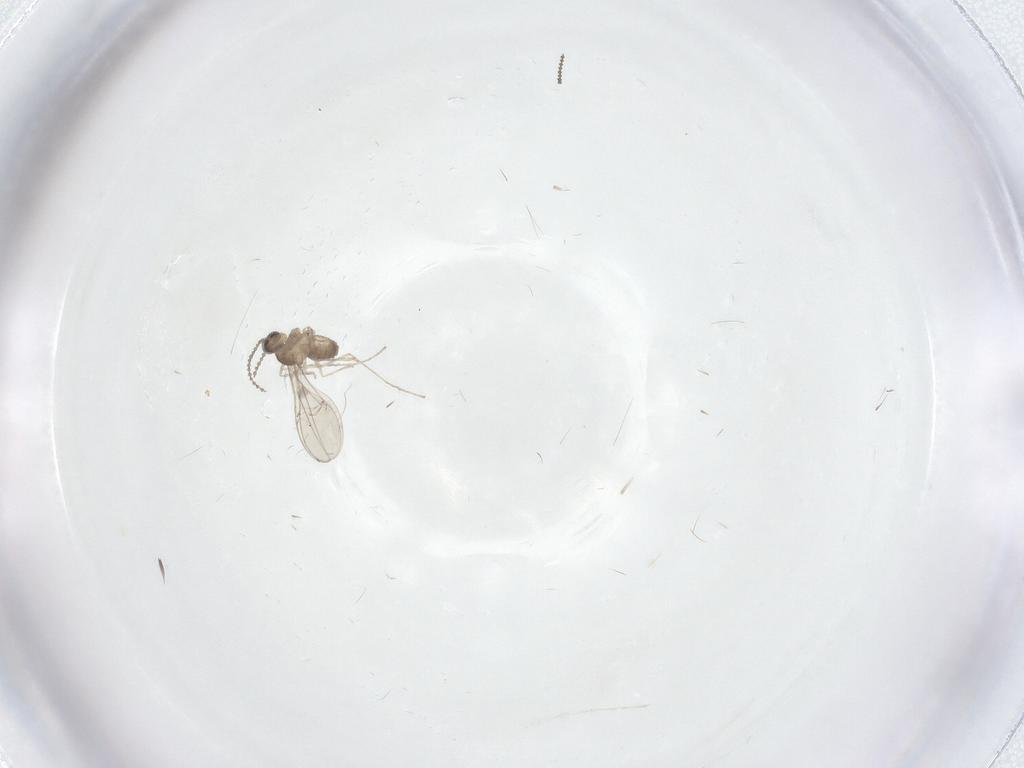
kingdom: Animalia
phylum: Arthropoda
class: Insecta
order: Diptera
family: Cecidomyiidae
